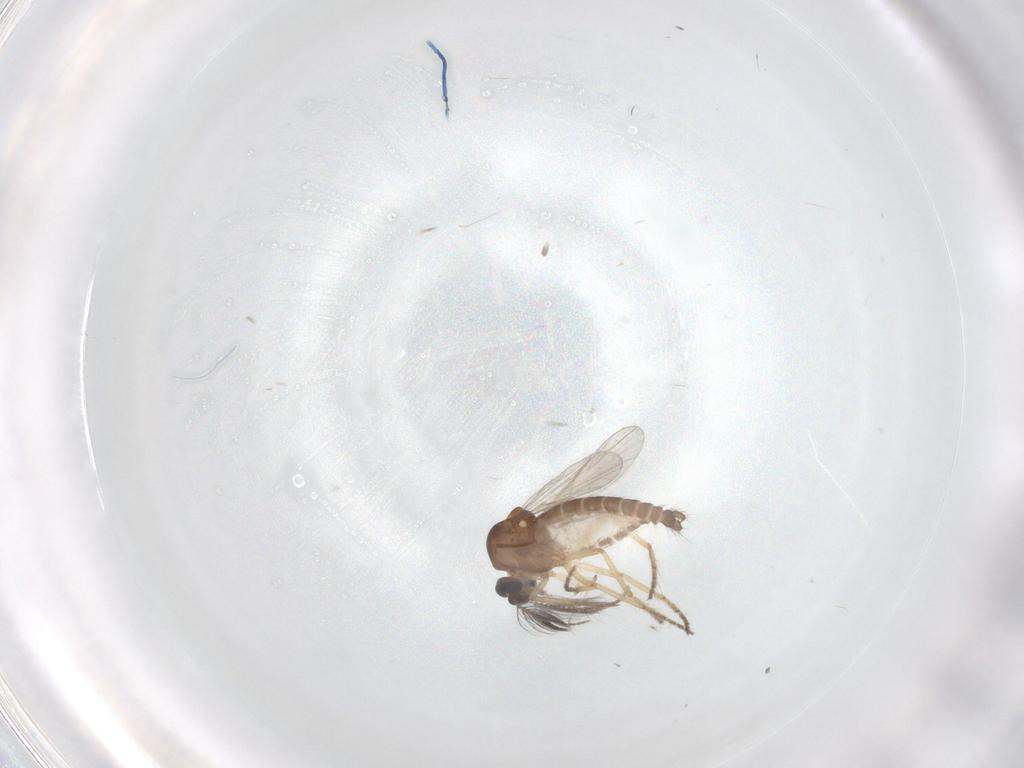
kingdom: Animalia
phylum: Arthropoda
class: Insecta
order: Diptera
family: Ceratopogonidae
